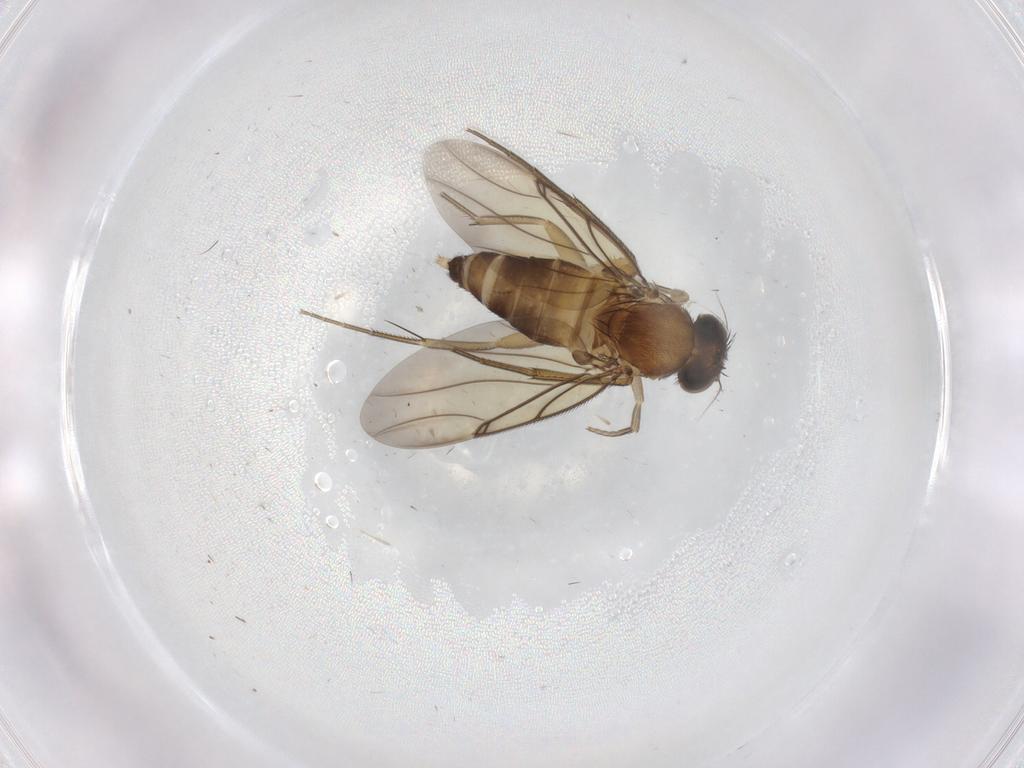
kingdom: Animalia
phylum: Arthropoda
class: Insecta
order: Diptera
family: Phoridae
